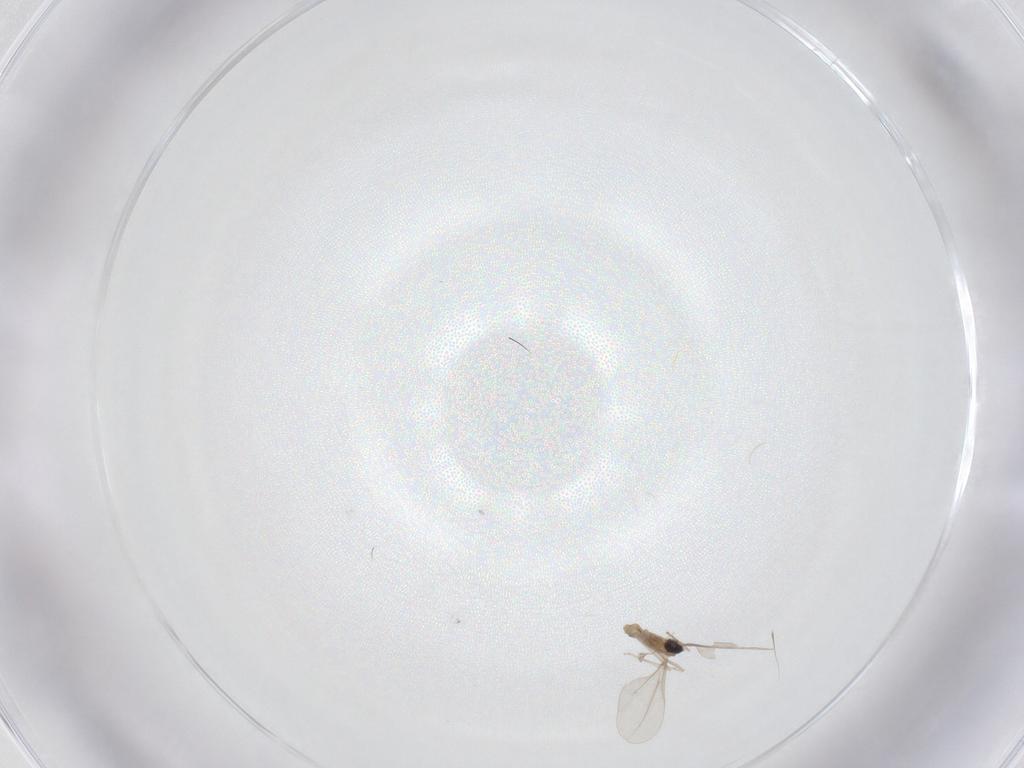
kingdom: Animalia
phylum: Arthropoda
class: Insecta
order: Diptera
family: Chironomidae
